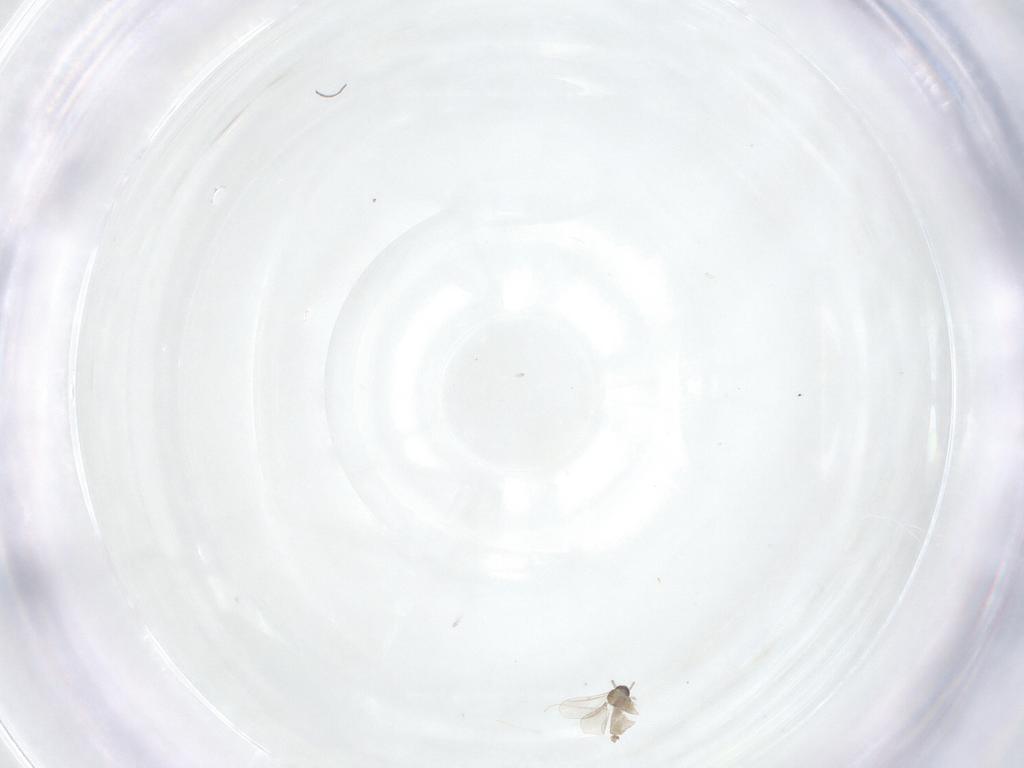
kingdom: Animalia
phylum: Arthropoda
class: Insecta
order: Diptera
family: Cecidomyiidae
